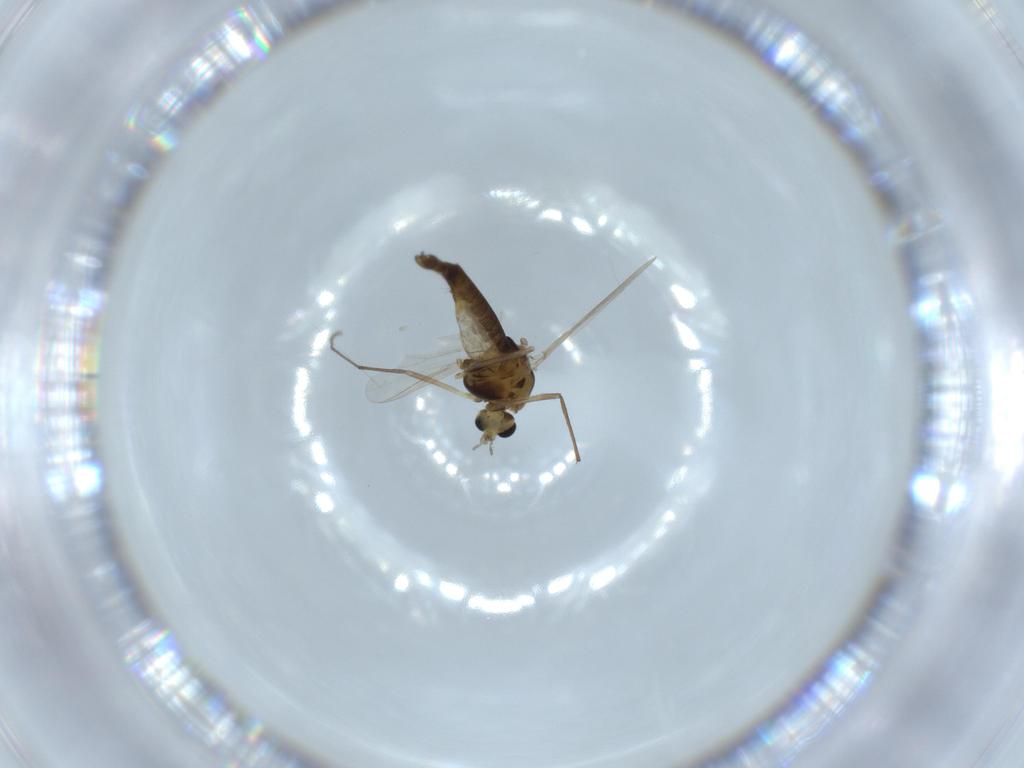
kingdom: Animalia
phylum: Arthropoda
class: Insecta
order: Diptera
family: Chironomidae
